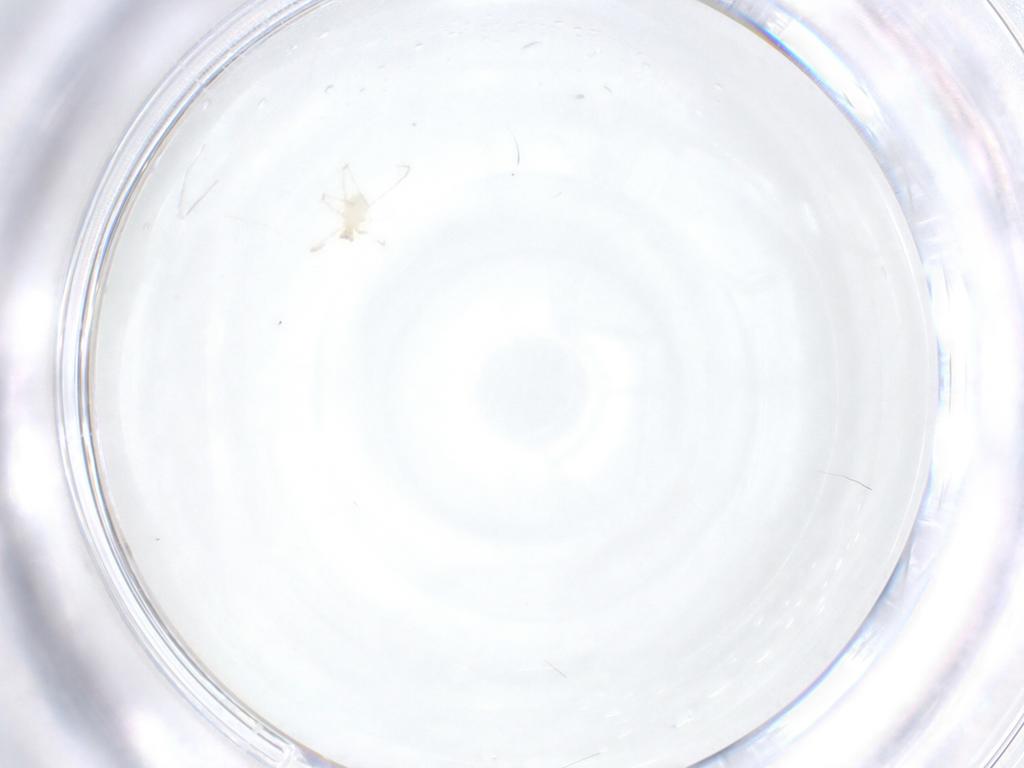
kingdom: Animalia
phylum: Arthropoda
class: Arachnida
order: Trombidiformes
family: Erythraeidae
